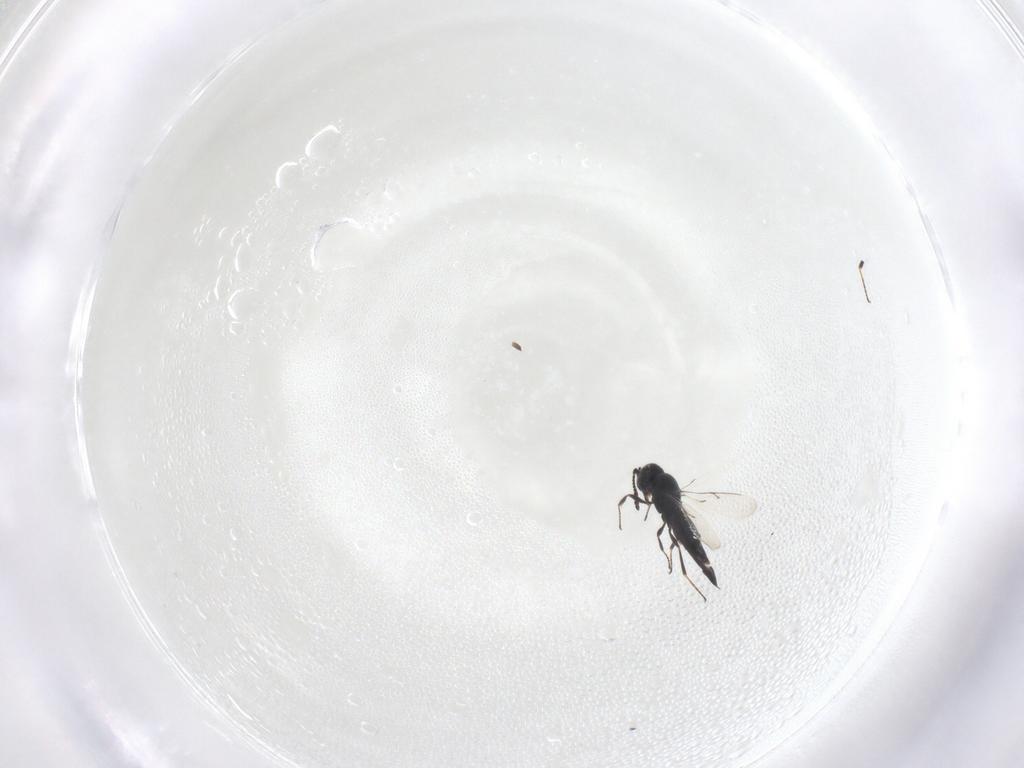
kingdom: Animalia
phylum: Arthropoda
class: Insecta
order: Hymenoptera
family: Scelionidae
